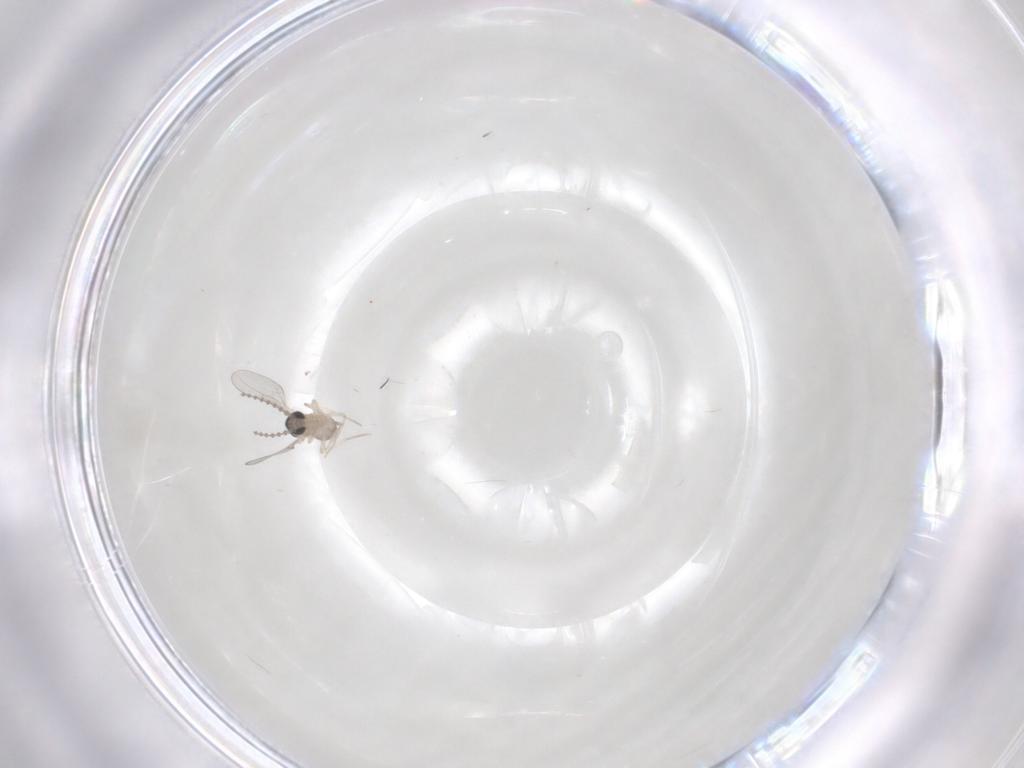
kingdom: Animalia
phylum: Arthropoda
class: Insecta
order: Diptera
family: Cecidomyiidae
